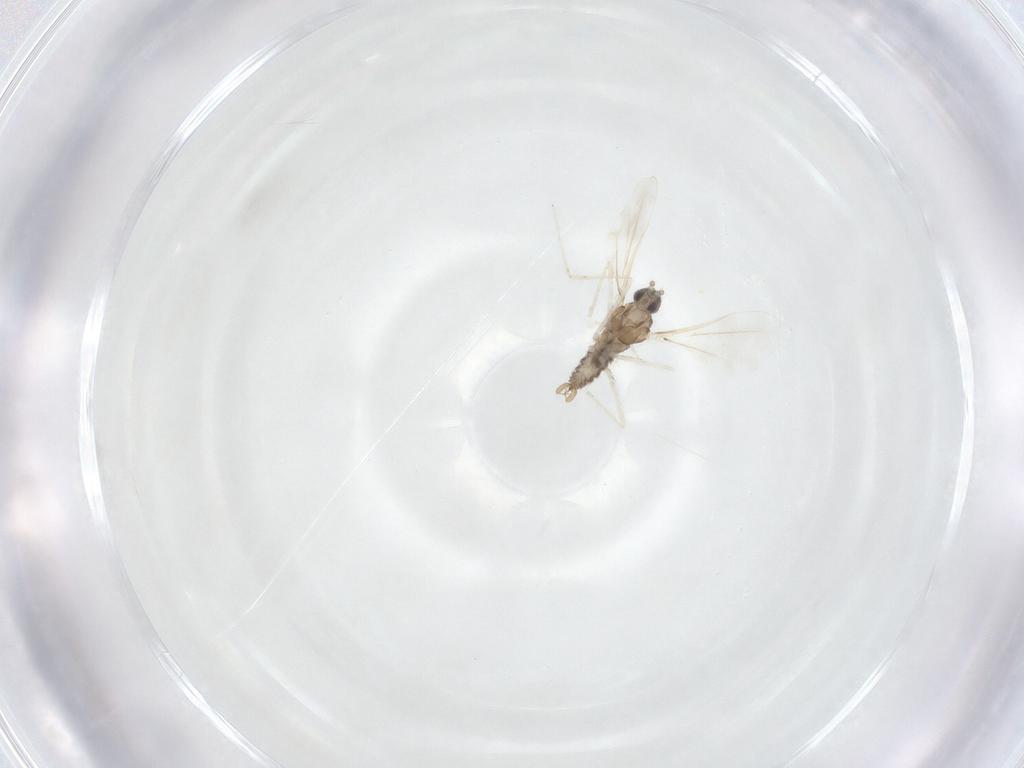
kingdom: Animalia
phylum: Arthropoda
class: Insecta
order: Diptera
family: Cecidomyiidae
